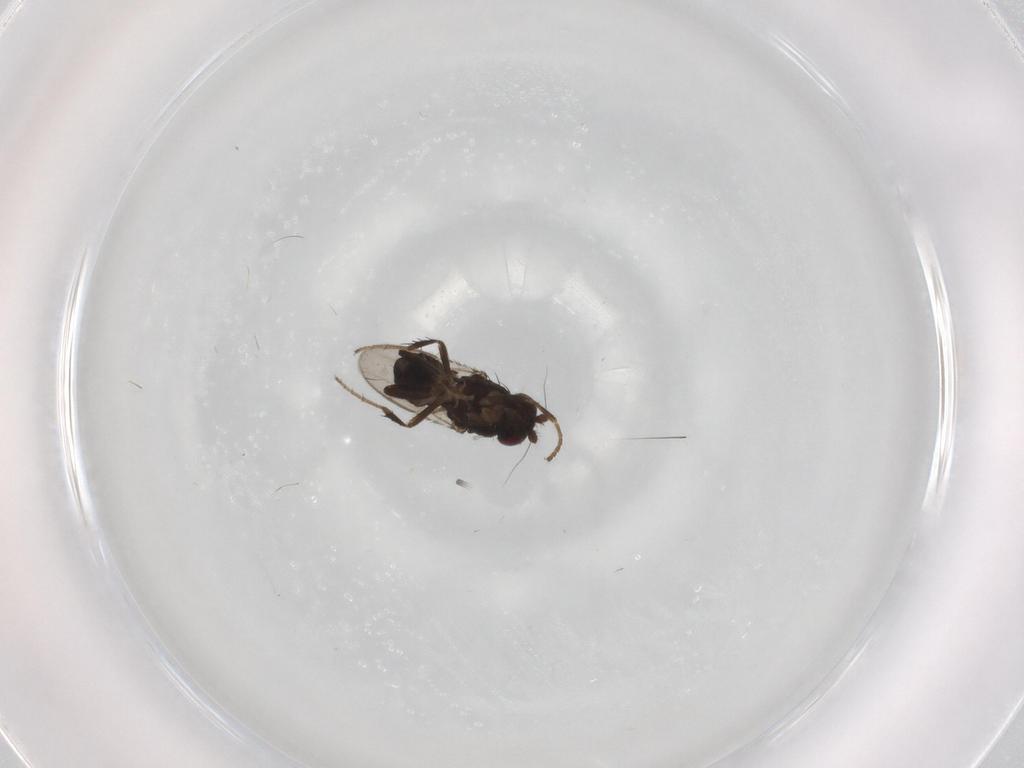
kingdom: Animalia
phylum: Arthropoda
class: Insecta
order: Diptera
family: Sphaeroceridae
